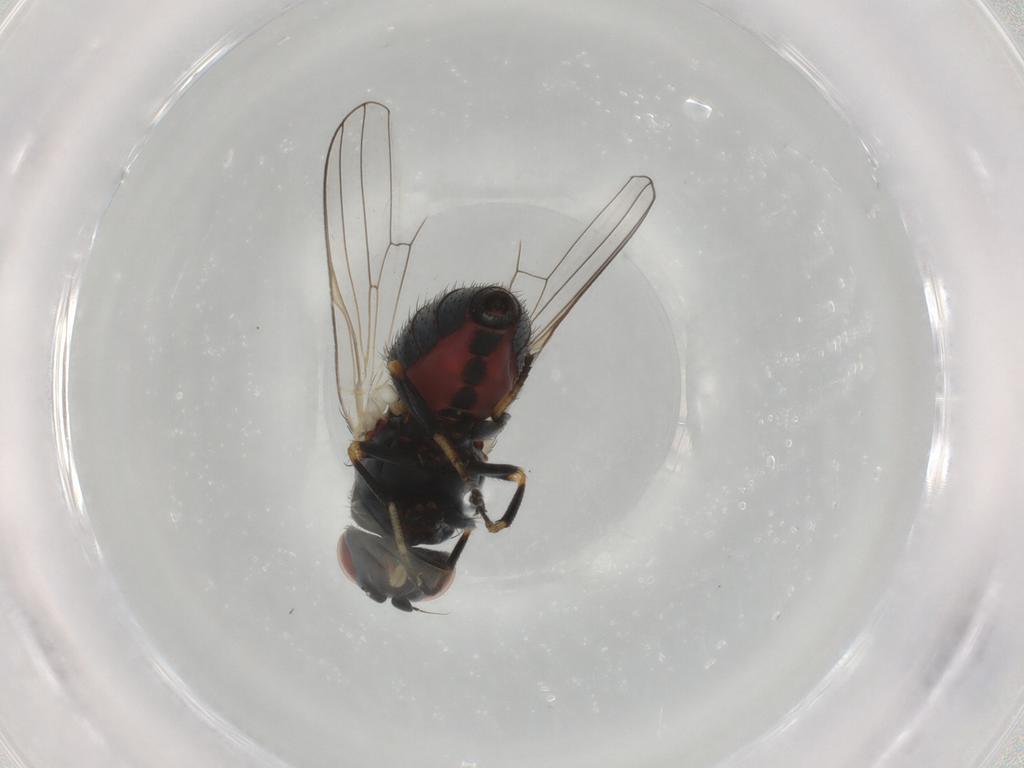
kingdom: Animalia
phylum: Arthropoda
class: Insecta
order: Diptera
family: Chamaemyiidae
